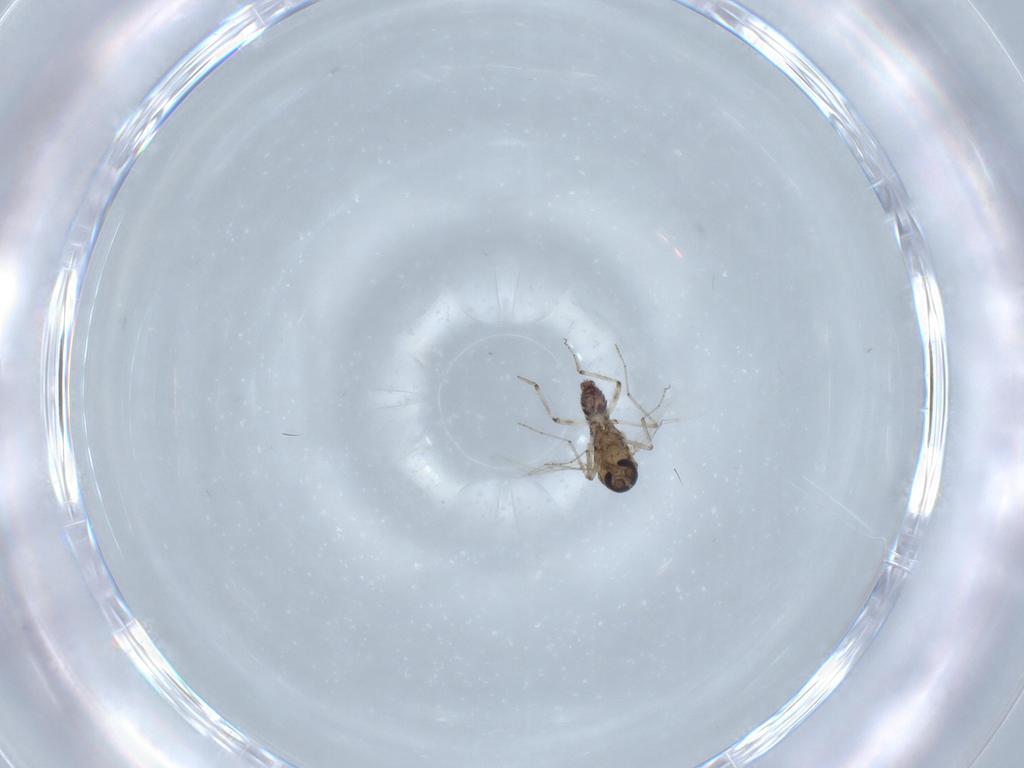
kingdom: Animalia
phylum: Arthropoda
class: Insecta
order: Diptera
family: Ceratopogonidae
